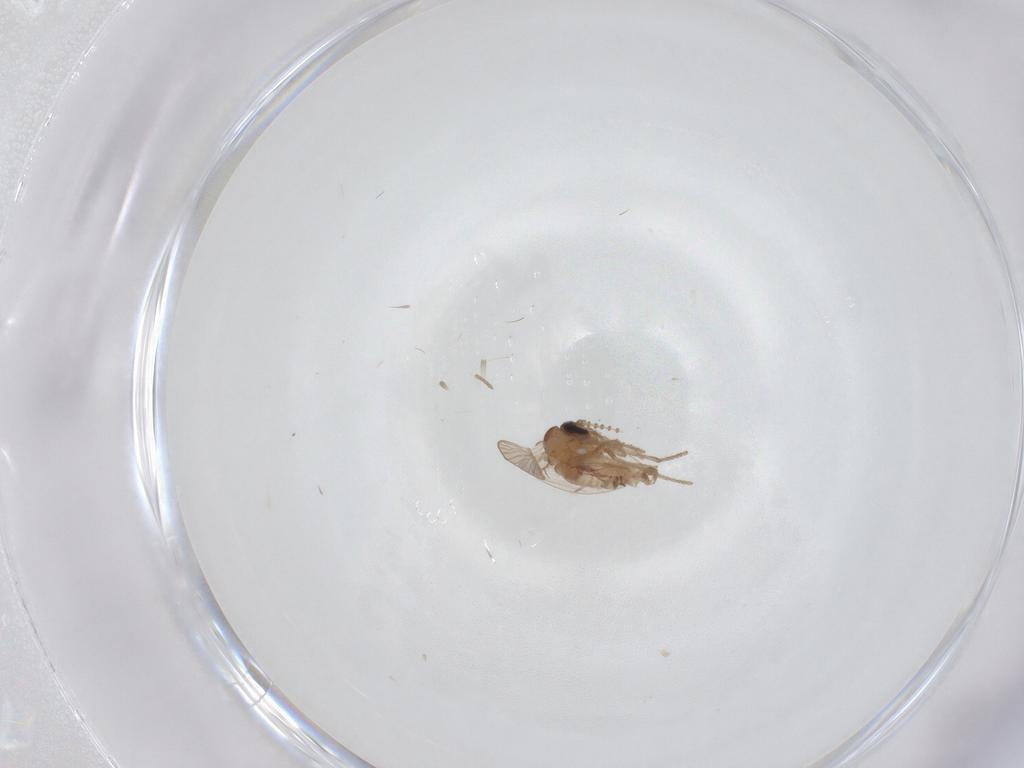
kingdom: Animalia
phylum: Arthropoda
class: Insecta
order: Diptera
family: Psychodidae
